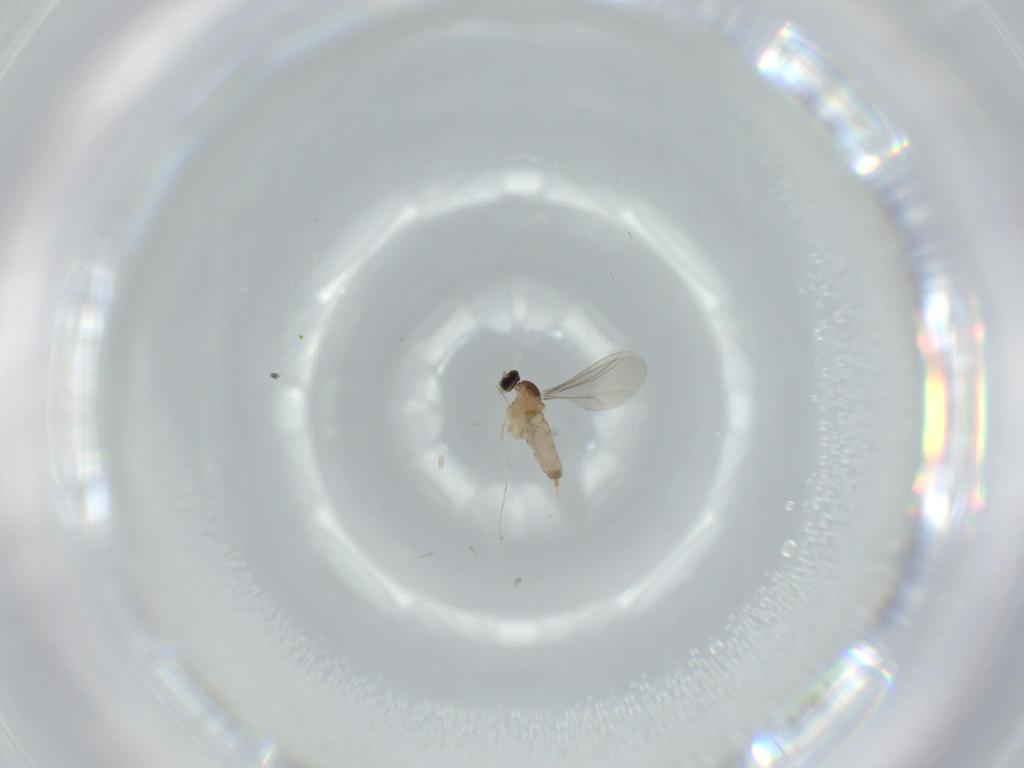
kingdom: Animalia
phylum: Arthropoda
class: Insecta
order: Diptera
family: Cecidomyiidae
